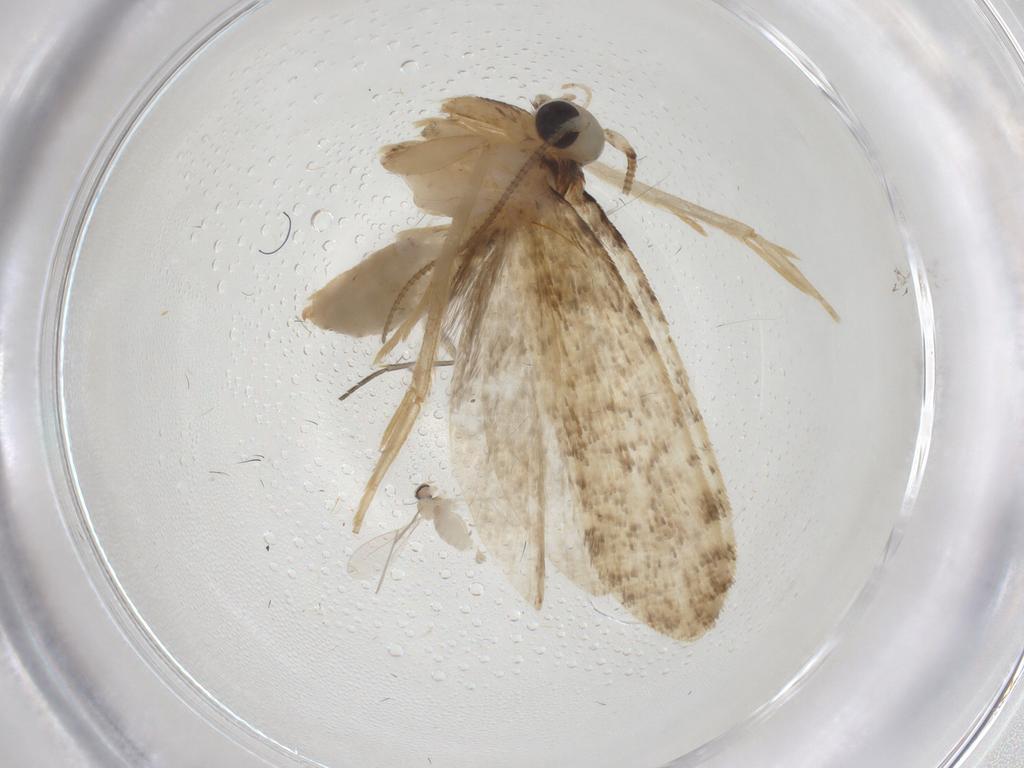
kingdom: Animalia
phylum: Arthropoda
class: Insecta
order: Lepidoptera
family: Tineidae
